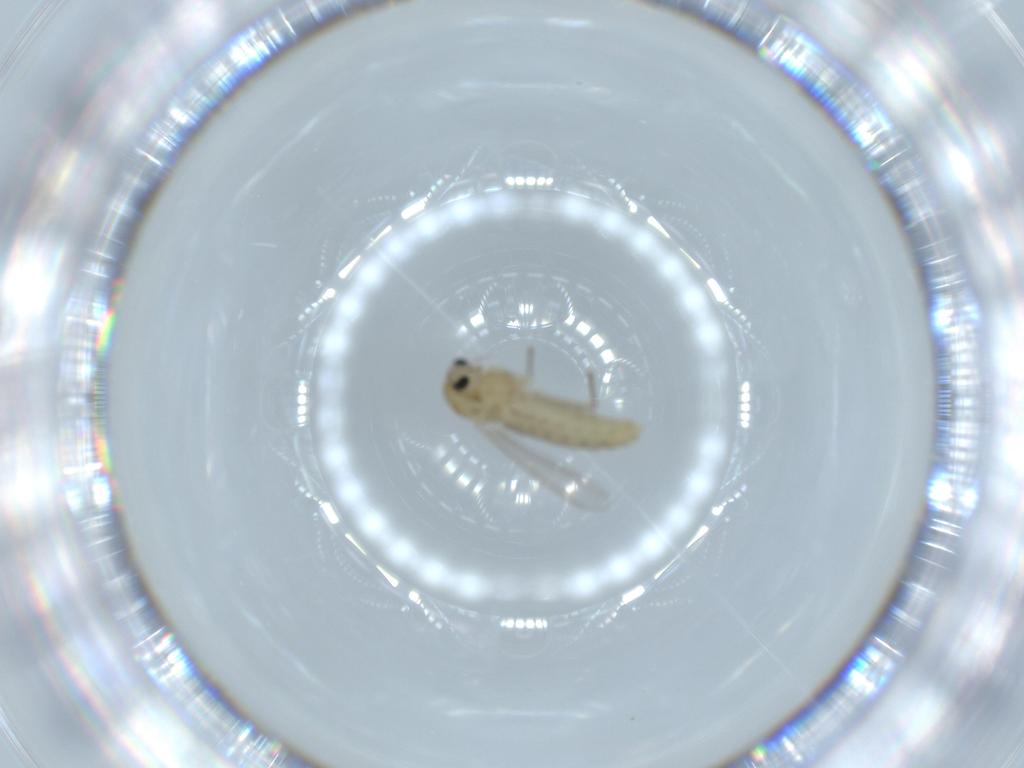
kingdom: Animalia
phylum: Arthropoda
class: Insecta
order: Diptera
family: Chironomidae
